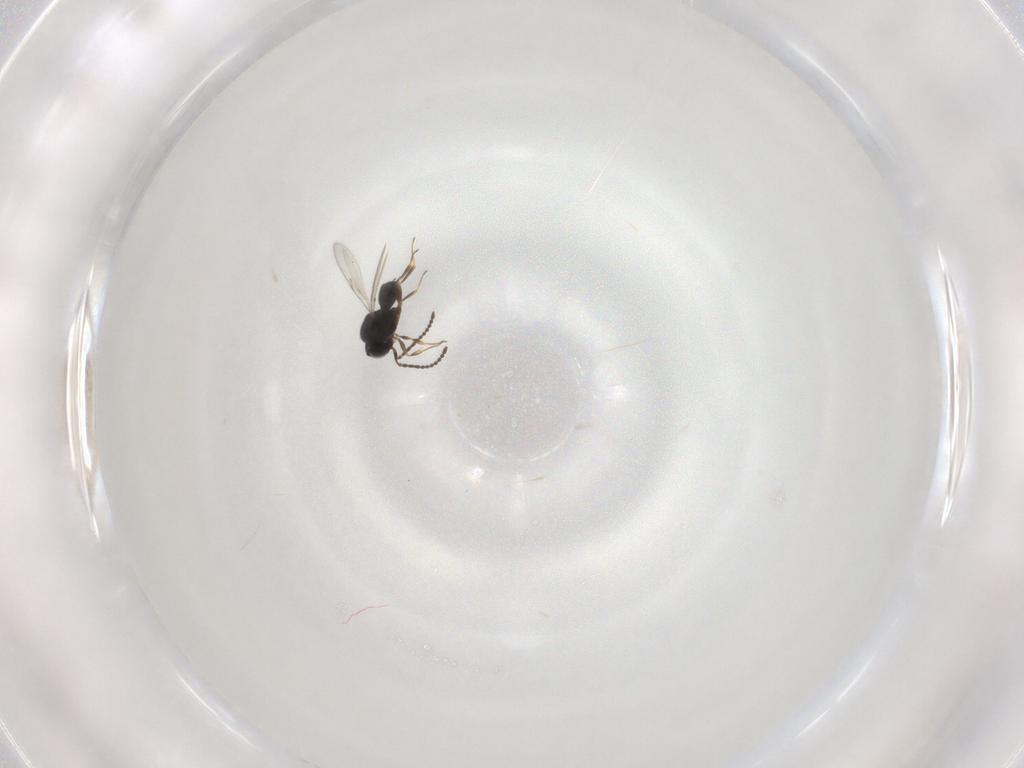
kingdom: Animalia
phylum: Arthropoda
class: Insecta
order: Hymenoptera
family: Scelionidae
